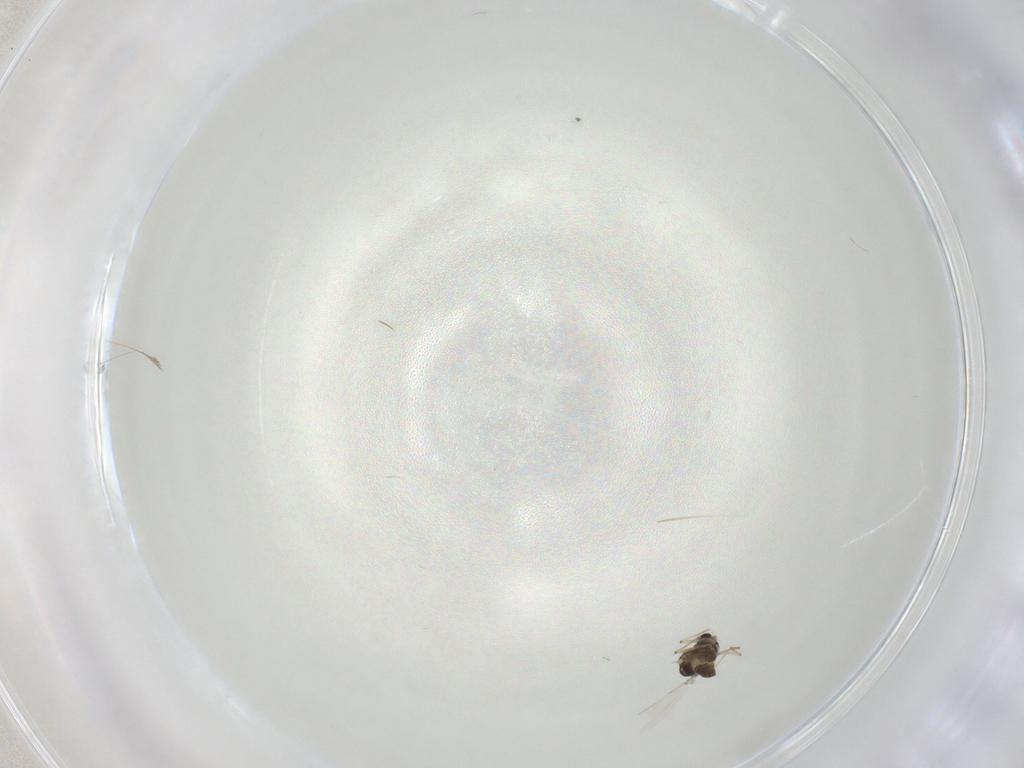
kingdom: Animalia
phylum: Arthropoda
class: Insecta
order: Diptera
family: Chironomidae
